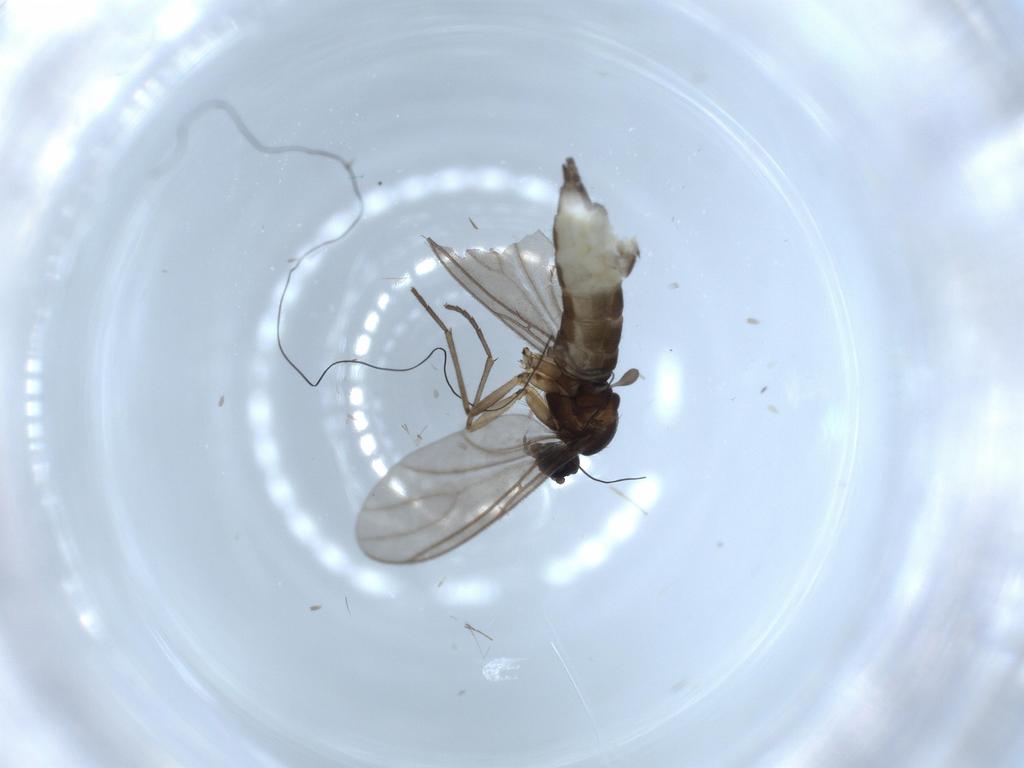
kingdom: Animalia
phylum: Arthropoda
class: Insecta
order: Diptera
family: Sciaridae
